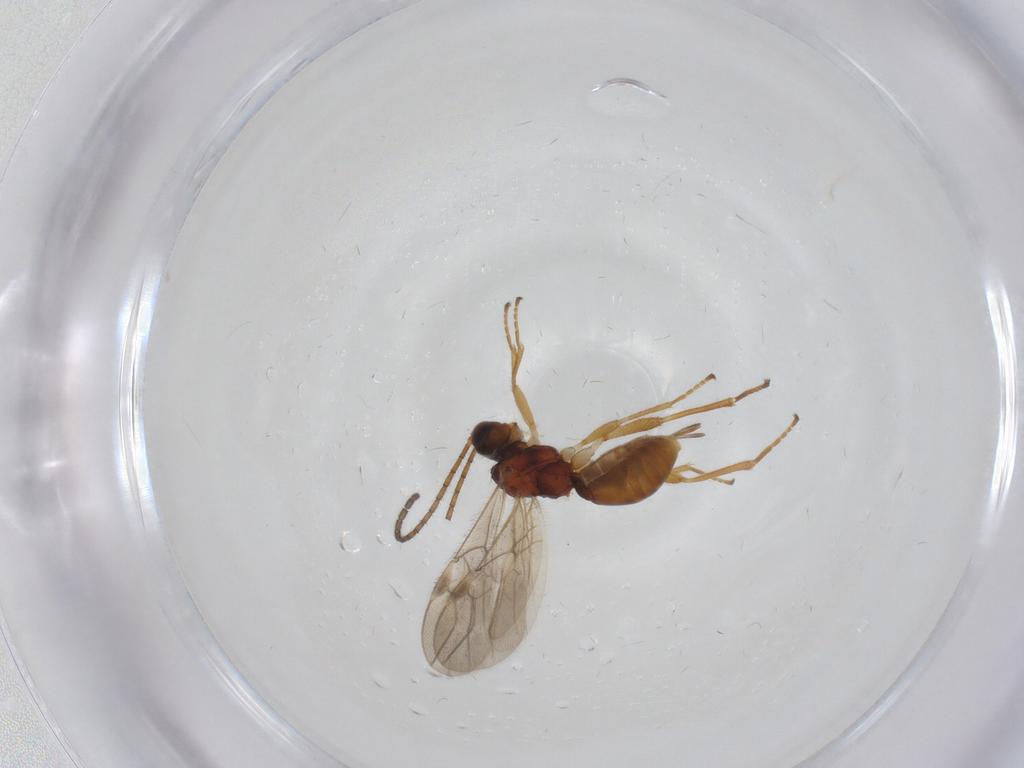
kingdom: Animalia
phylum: Arthropoda
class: Insecta
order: Hymenoptera
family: Braconidae
